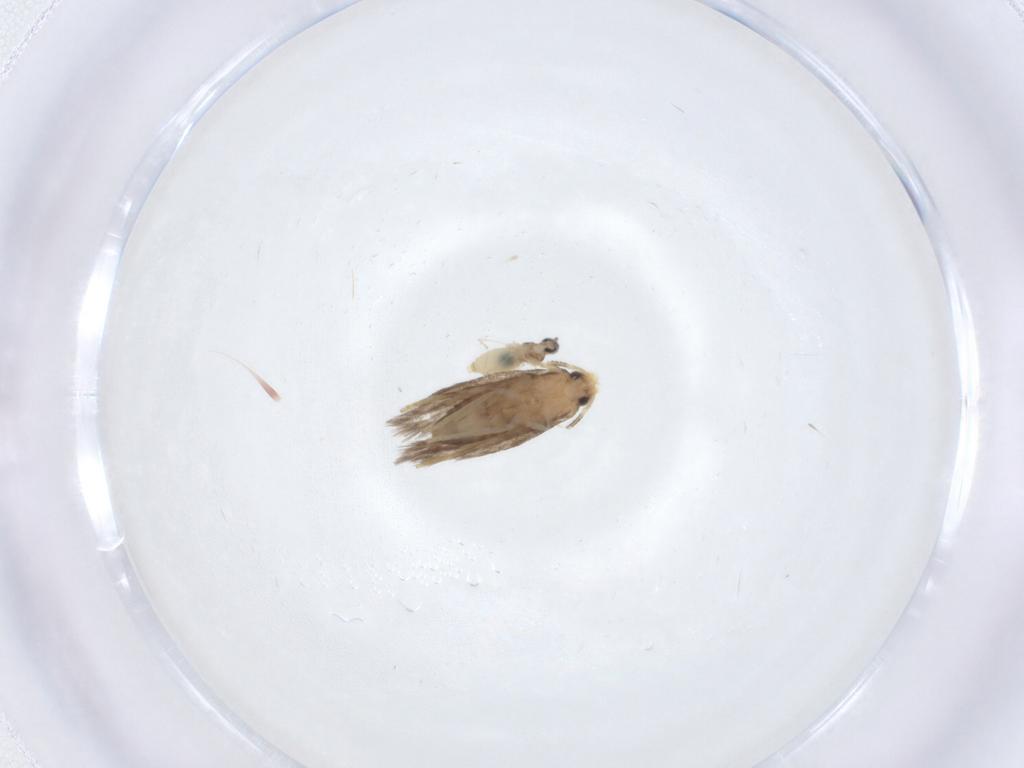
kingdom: Animalia
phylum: Arthropoda
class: Insecta
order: Diptera
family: Cecidomyiidae
